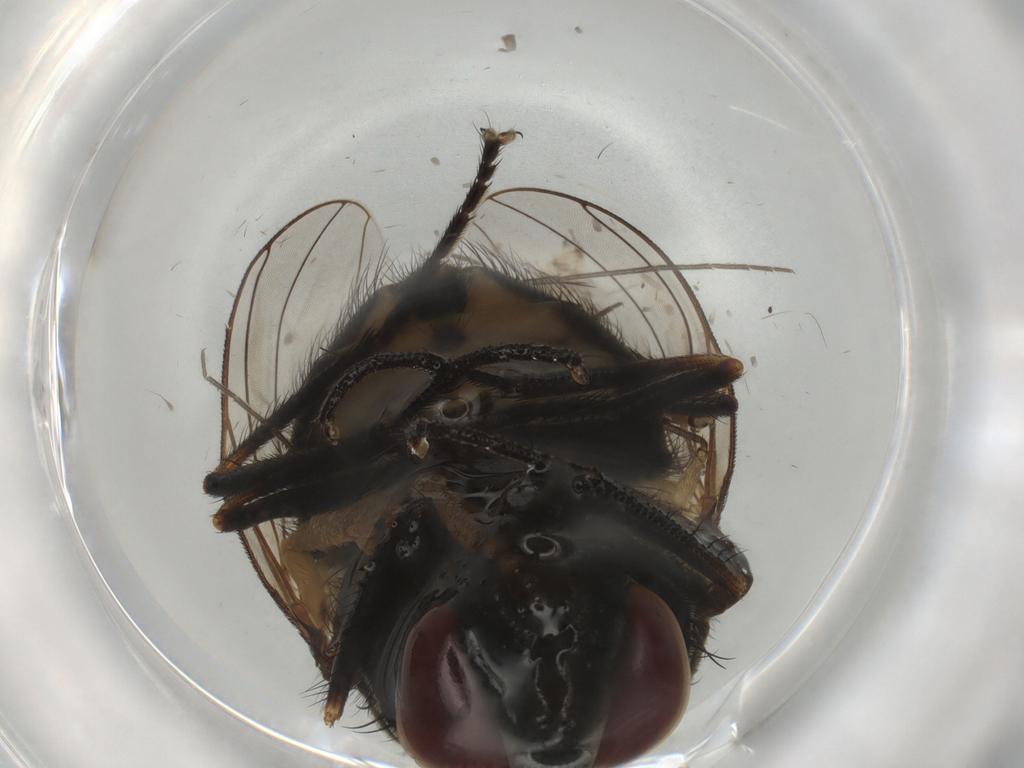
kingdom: Animalia
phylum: Arthropoda
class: Insecta
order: Diptera
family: Muscidae
